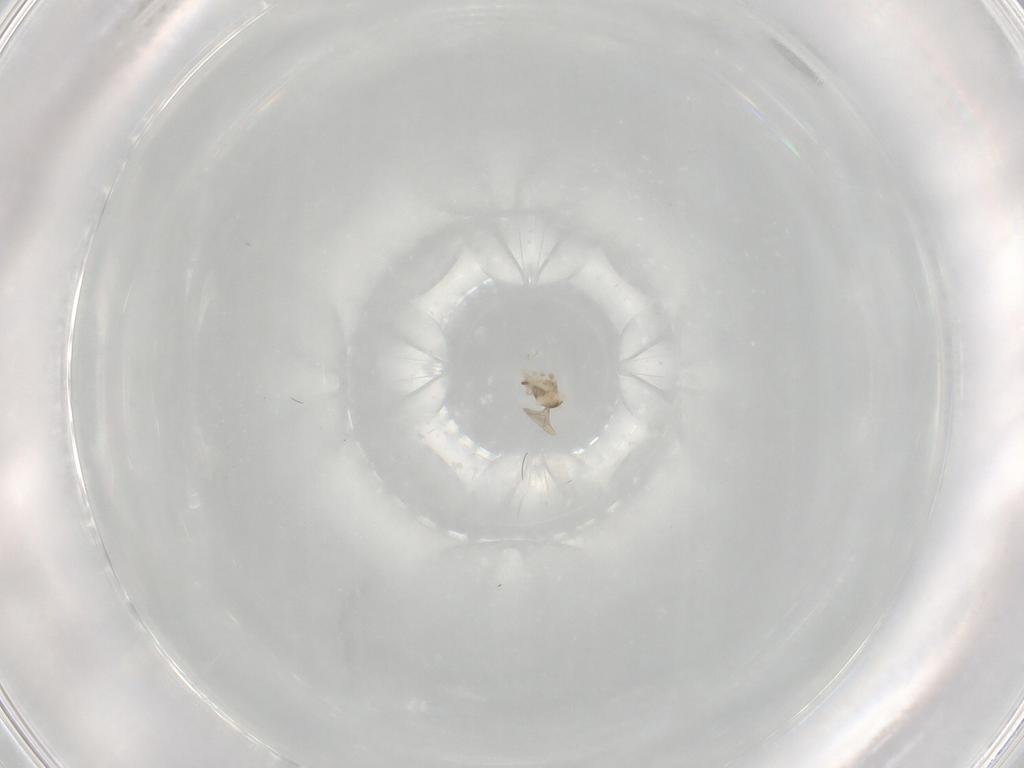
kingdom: Animalia
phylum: Arthropoda
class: Insecta
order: Diptera
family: Cecidomyiidae
